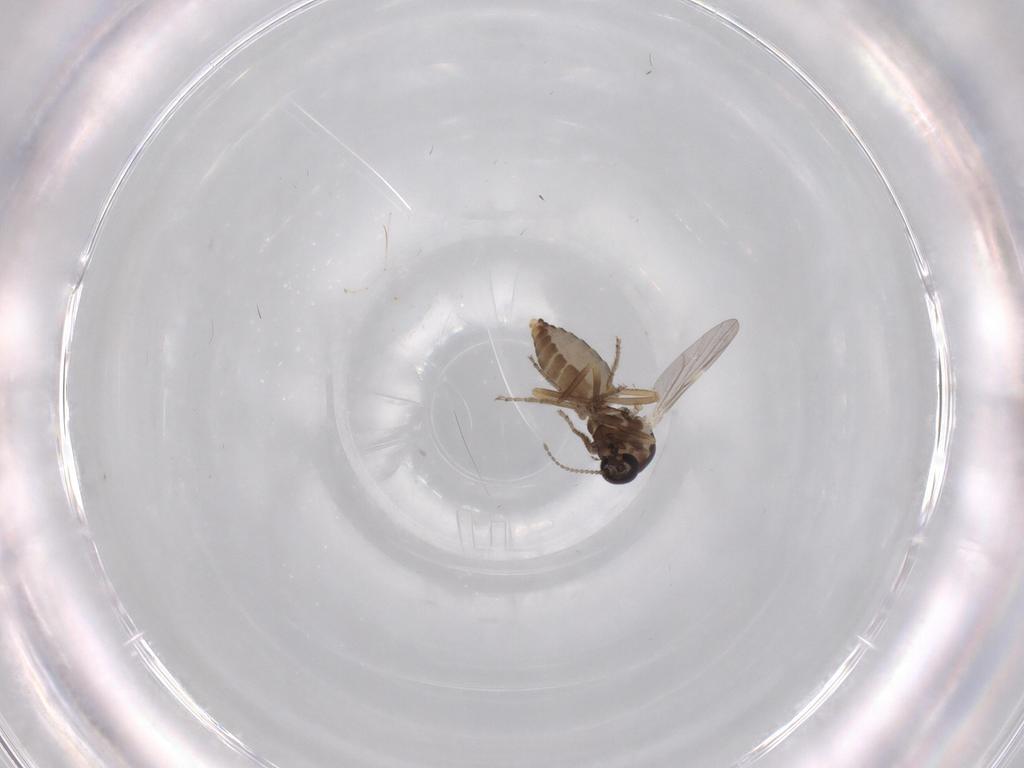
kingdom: Animalia
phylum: Arthropoda
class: Insecta
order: Diptera
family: Ceratopogonidae
